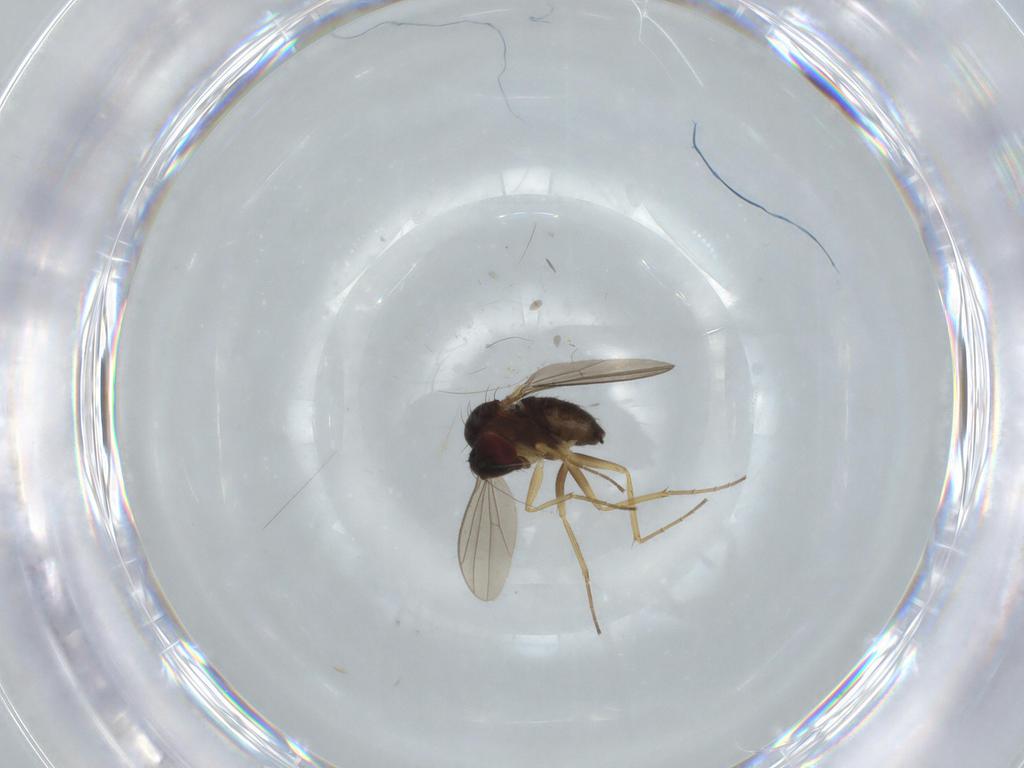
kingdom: Animalia
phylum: Arthropoda
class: Insecta
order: Diptera
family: Dolichopodidae
